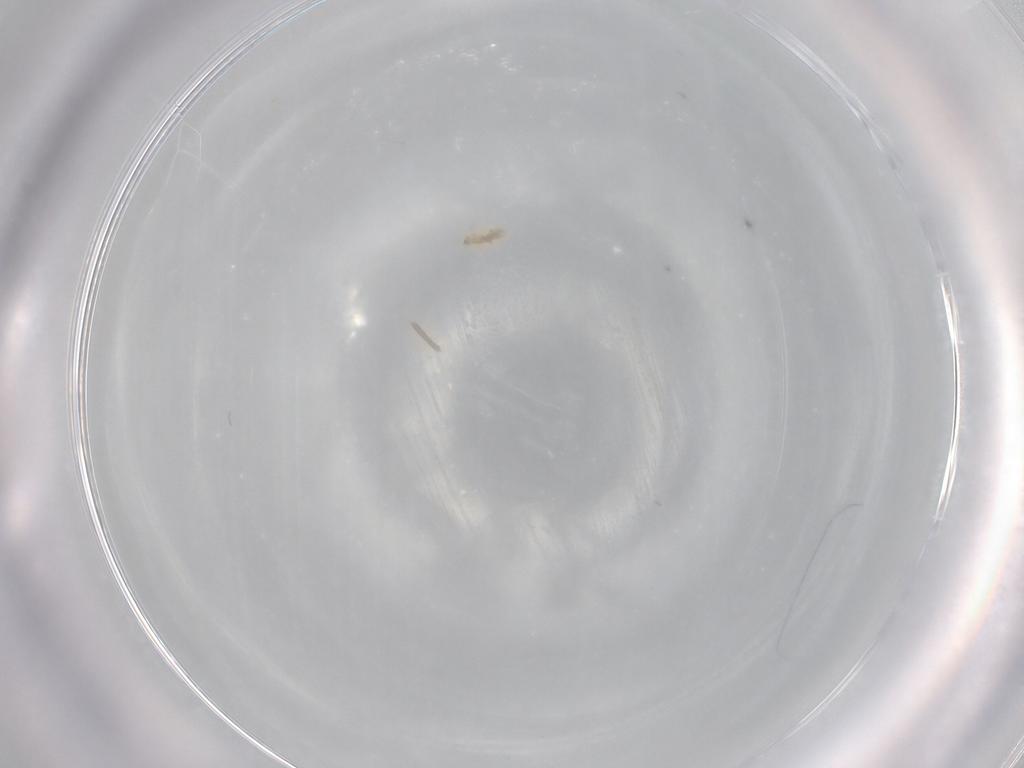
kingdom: Animalia
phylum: Arthropoda
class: Arachnida
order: Trombidiformes
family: Erythraeidae
